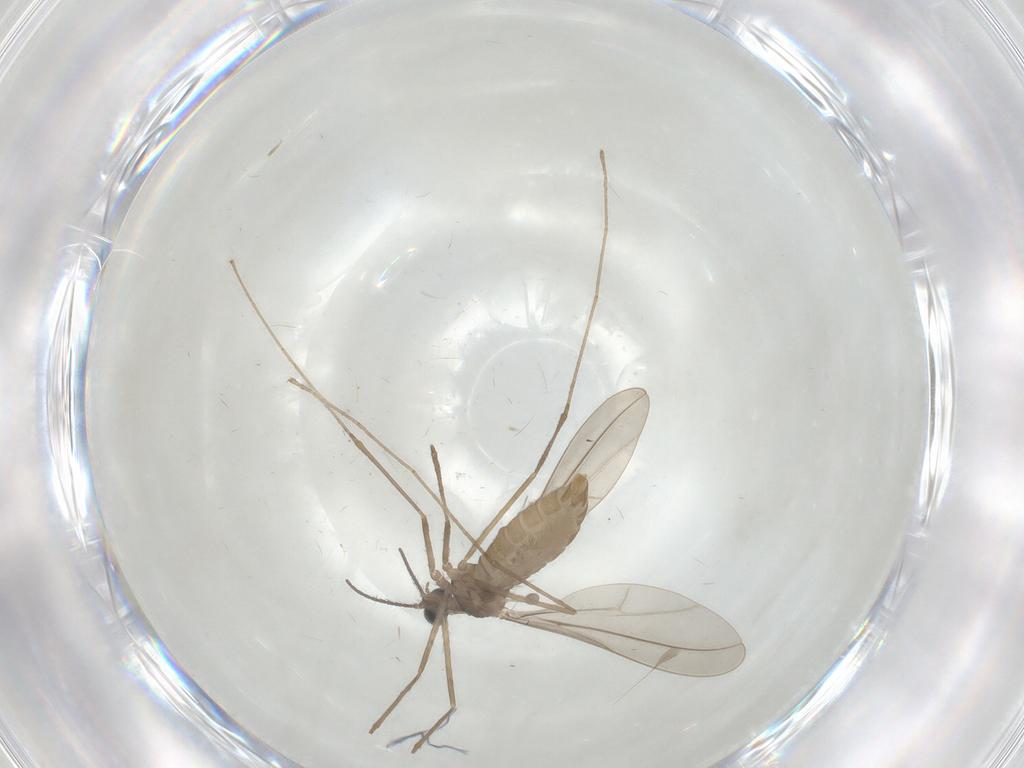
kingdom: Animalia
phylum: Arthropoda
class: Insecta
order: Diptera
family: Cecidomyiidae
